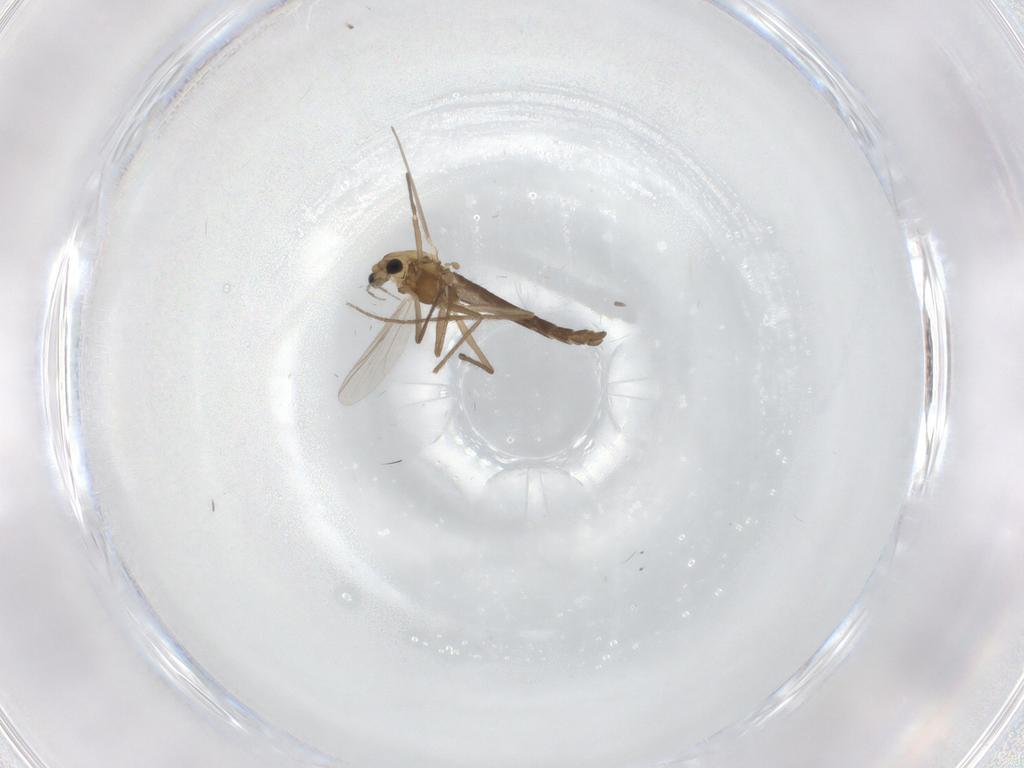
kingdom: Animalia
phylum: Arthropoda
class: Insecta
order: Diptera
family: Chironomidae
